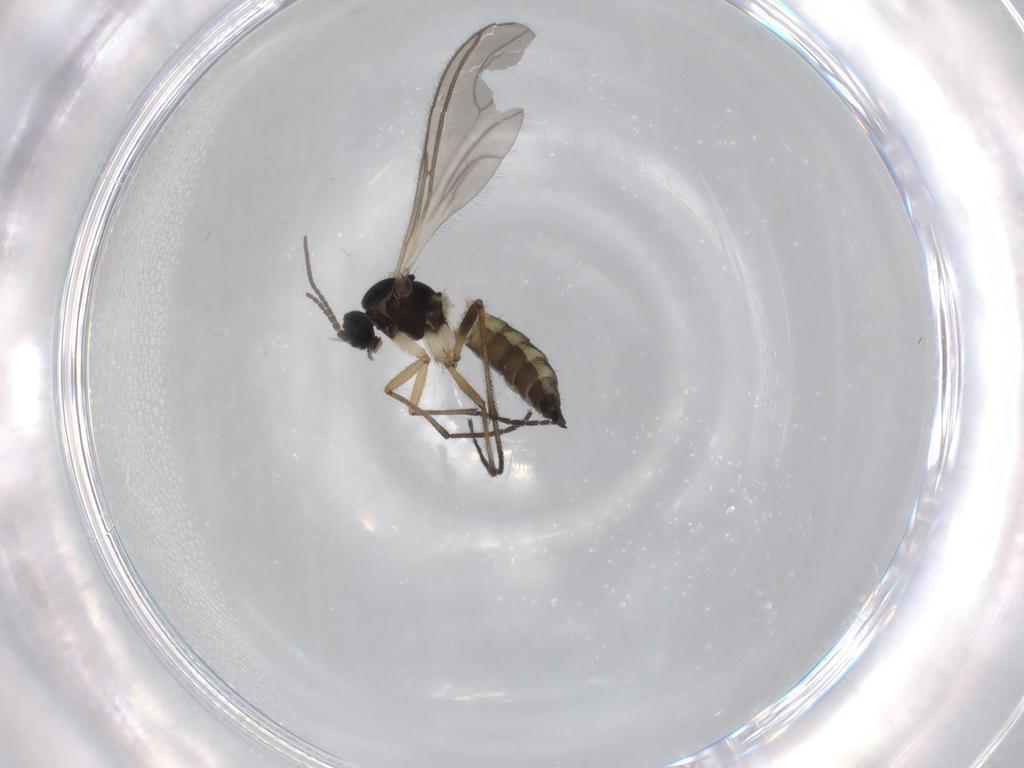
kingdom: Animalia
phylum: Arthropoda
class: Insecta
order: Diptera
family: Sciaridae
